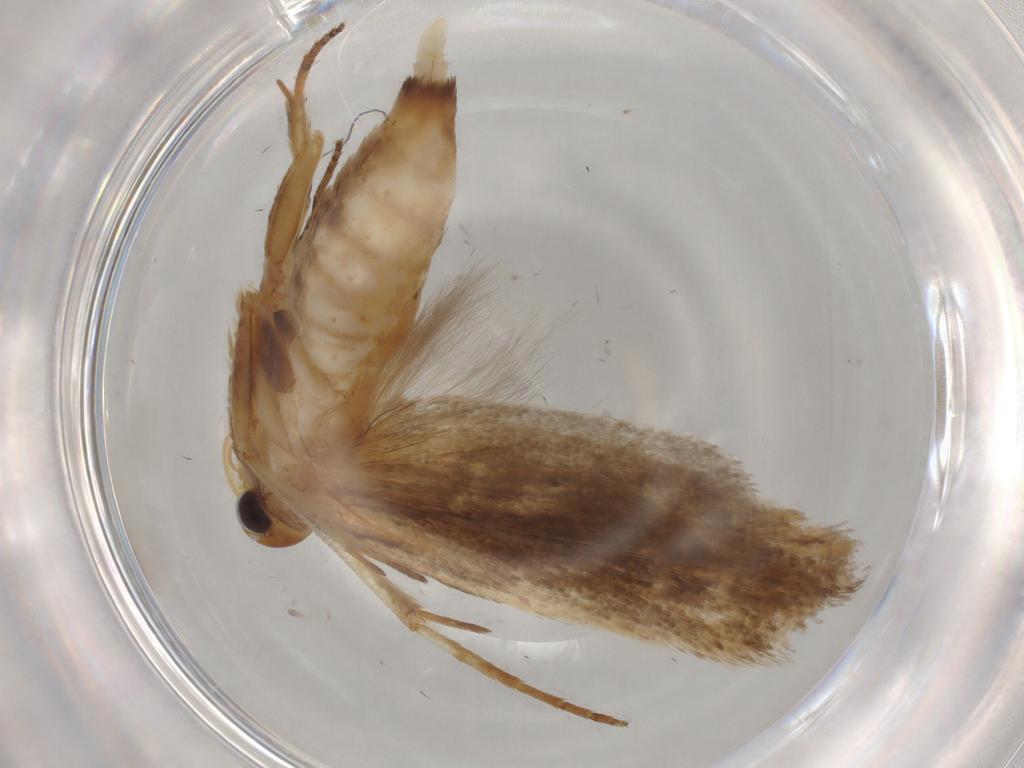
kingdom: Animalia
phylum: Arthropoda
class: Insecta
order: Lepidoptera
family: Gelechiidae
